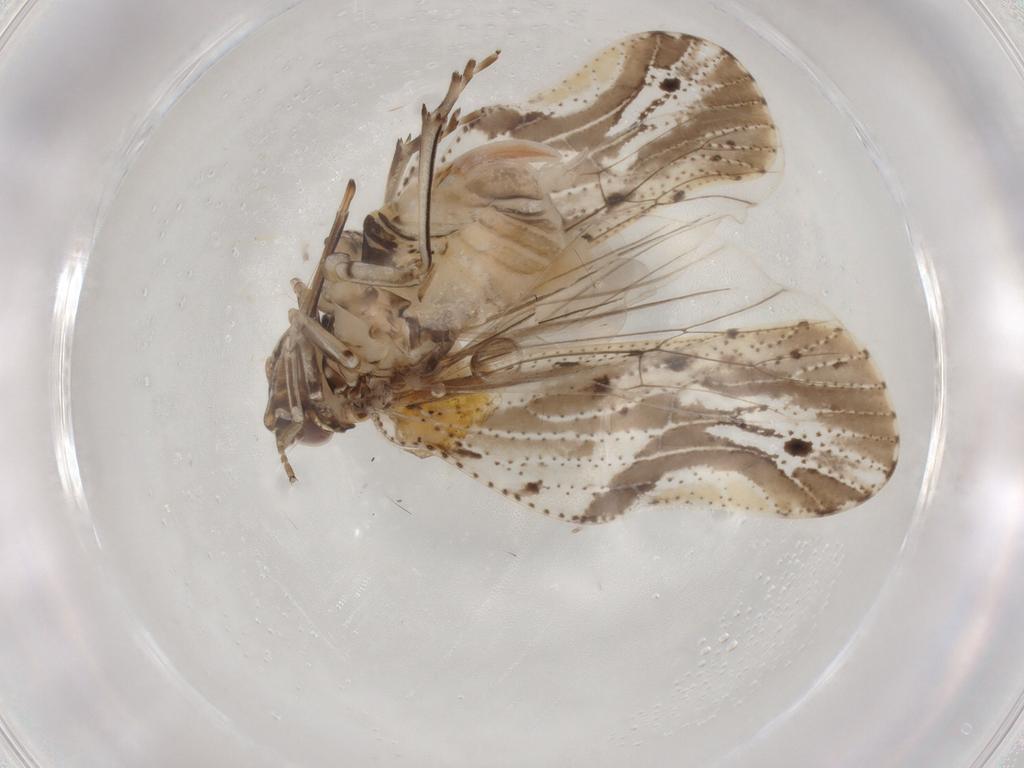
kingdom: Animalia
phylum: Arthropoda
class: Insecta
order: Hemiptera
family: Cixiidae
